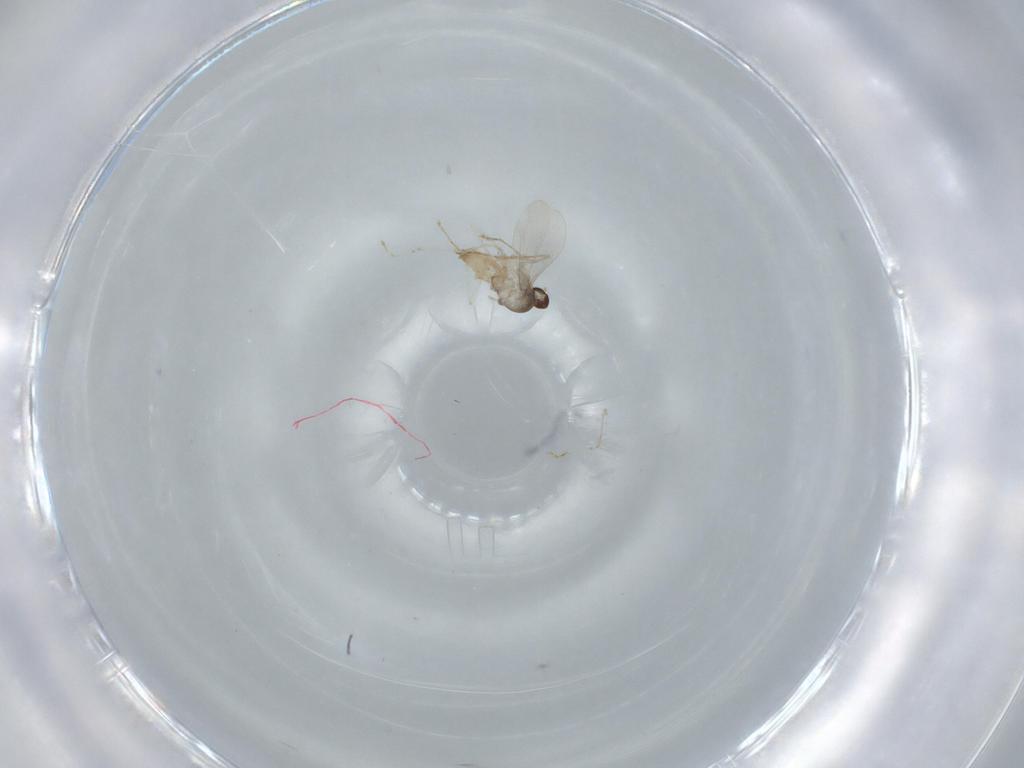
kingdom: Animalia
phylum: Arthropoda
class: Insecta
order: Diptera
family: Cecidomyiidae
